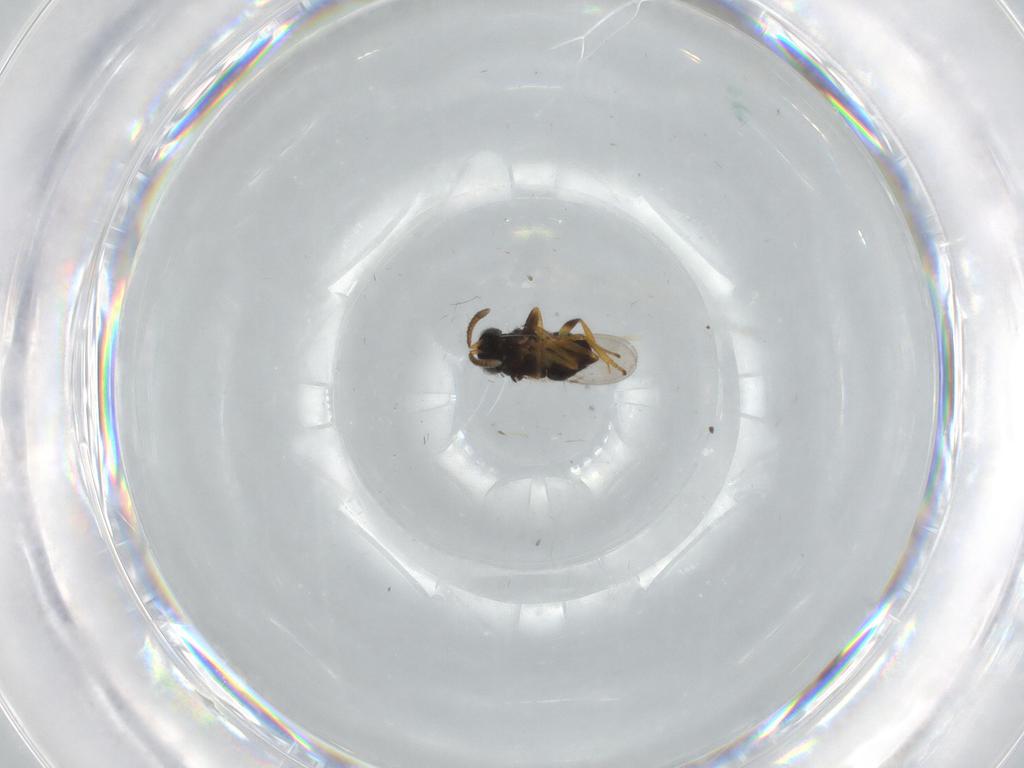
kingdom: Animalia
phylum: Arthropoda
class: Insecta
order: Hymenoptera
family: Encyrtidae
